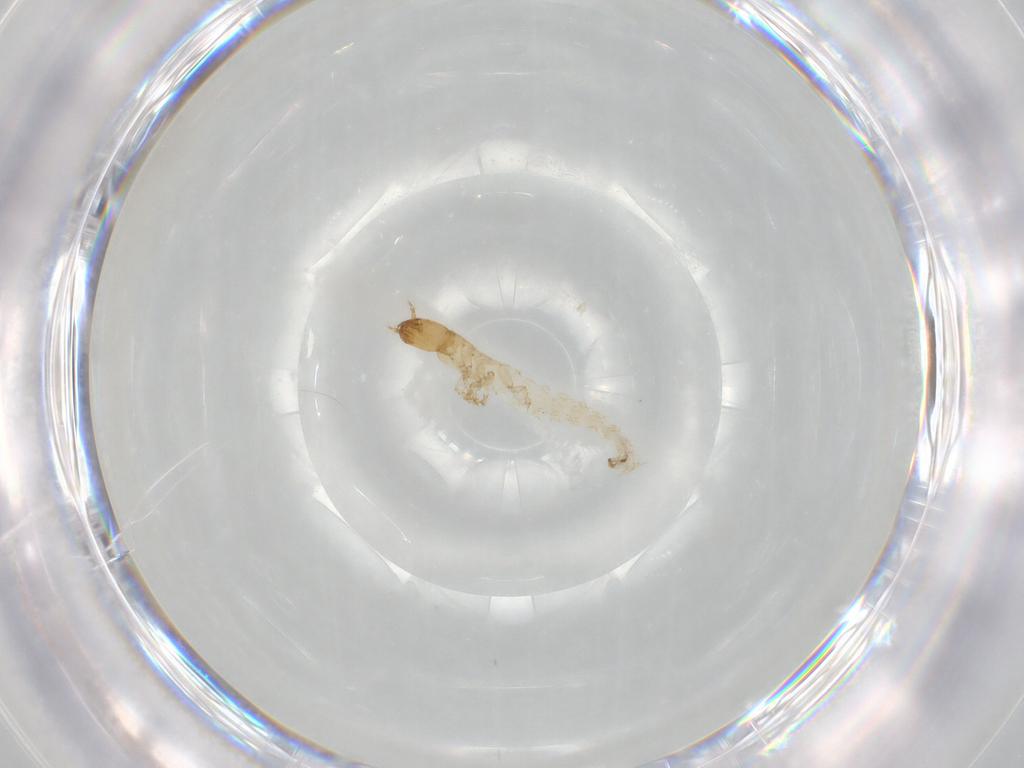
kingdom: Animalia
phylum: Arthropoda
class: Insecta
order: Coleoptera
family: Staphylinidae
